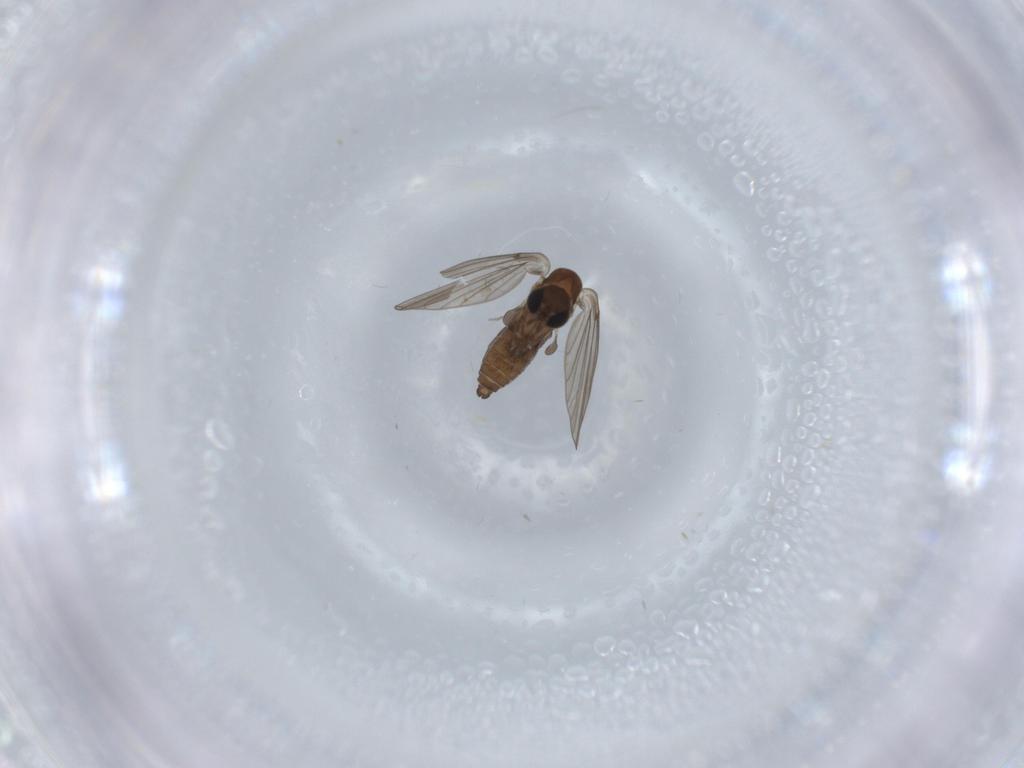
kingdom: Animalia
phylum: Arthropoda
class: Insecta
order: Diptera
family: Psychodidae
